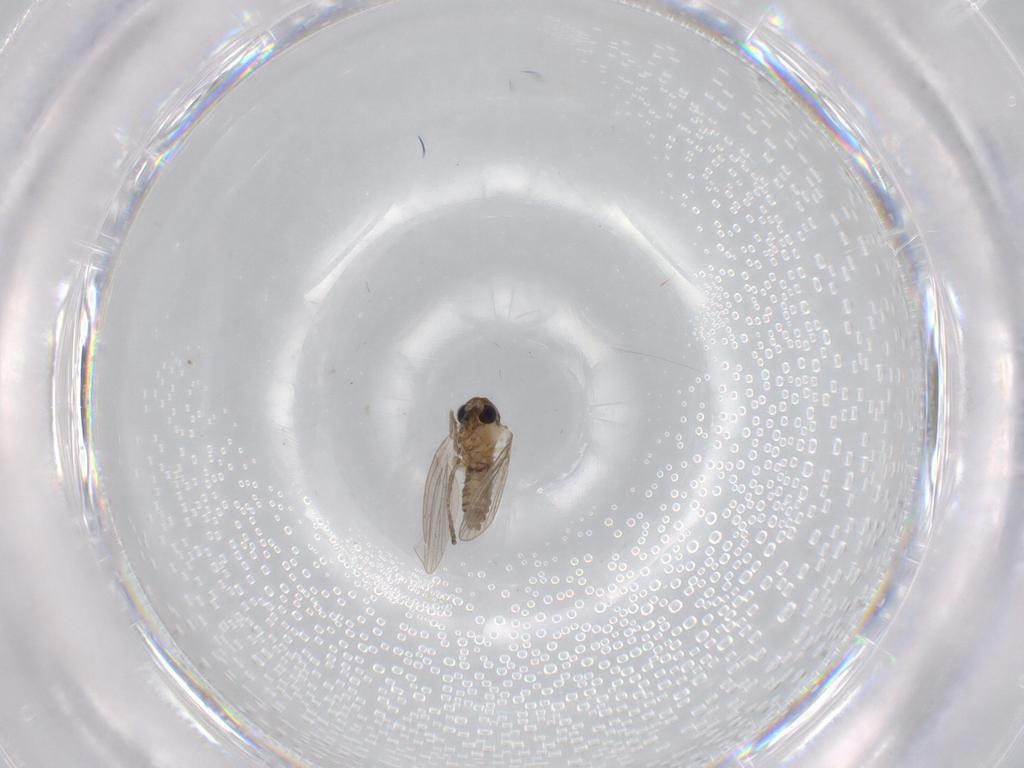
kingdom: Animalia
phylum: Arthropoda
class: Insecta
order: Diptera
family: Psychodidae
